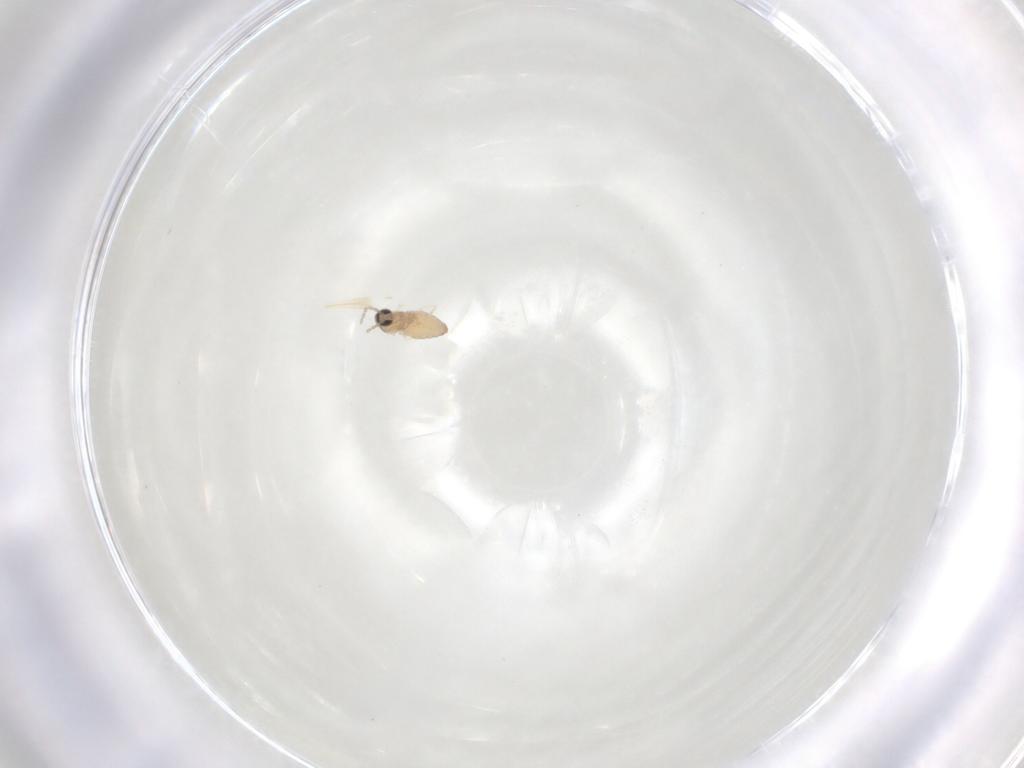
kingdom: Animalia
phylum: Arthropoda
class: Insecta
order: Diptera
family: Cecidomyiidae
